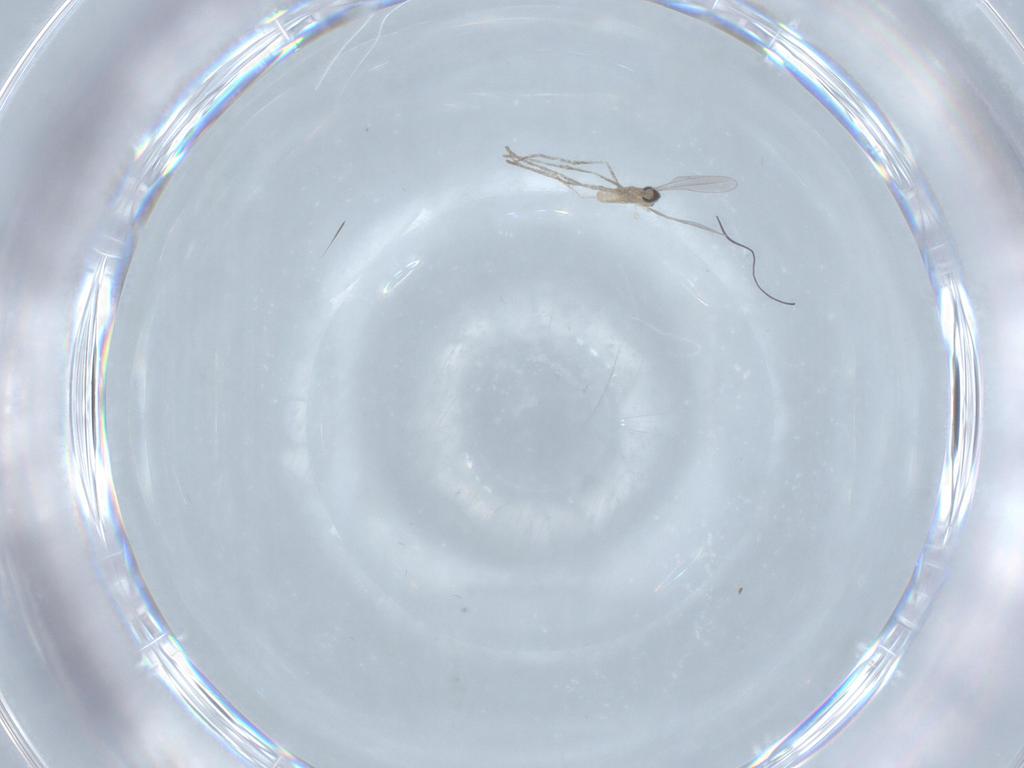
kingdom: Animalia
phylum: Arthropoda
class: Insecta
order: Diptera
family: Cecidomyiidae
